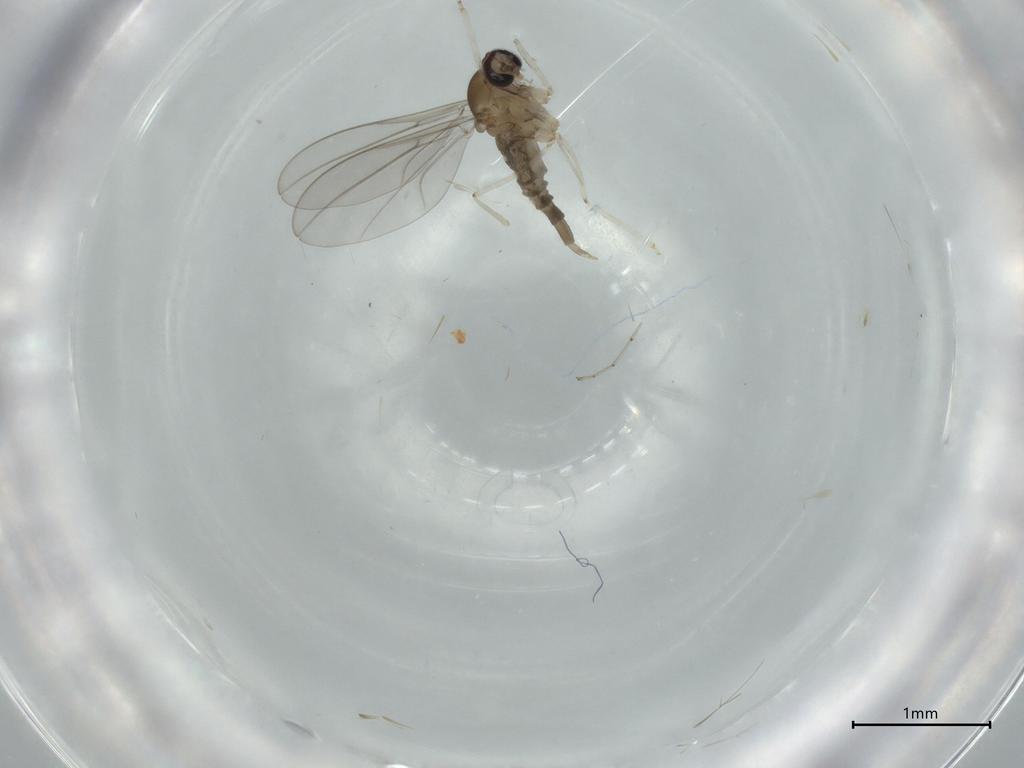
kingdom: Animalia
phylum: Arthropoda
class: Insecta
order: Diptera
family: Cecidomyiidae
